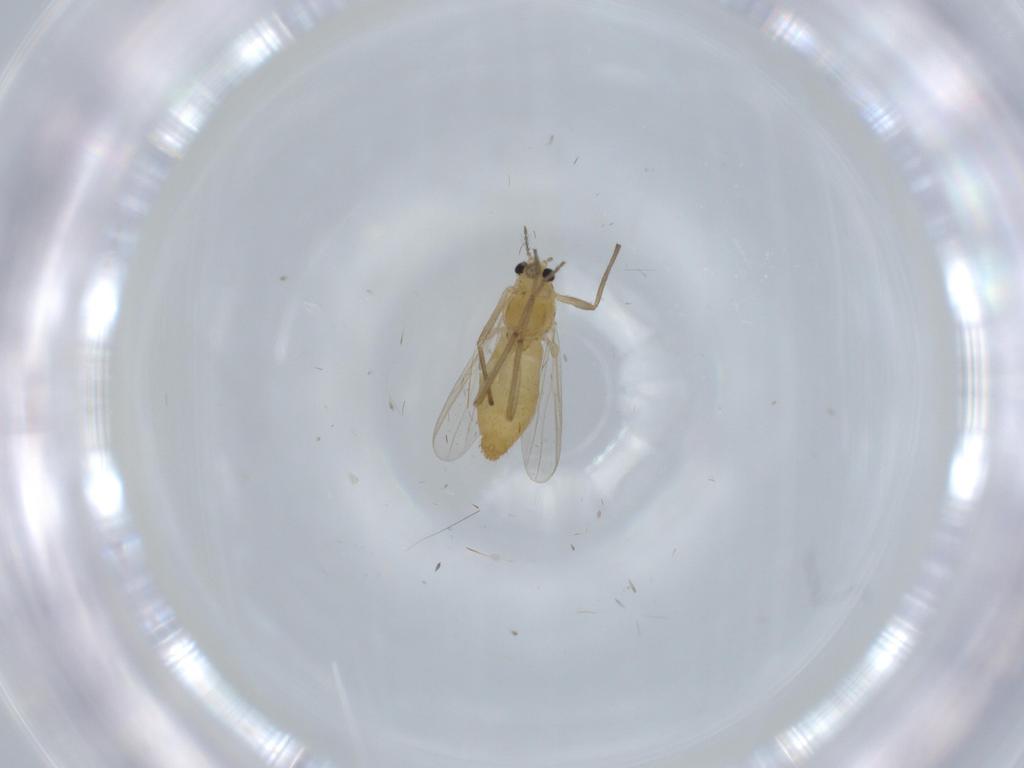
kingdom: Animalia
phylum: Arthropoda
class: Insecta
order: Diptera
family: Chironomidae
